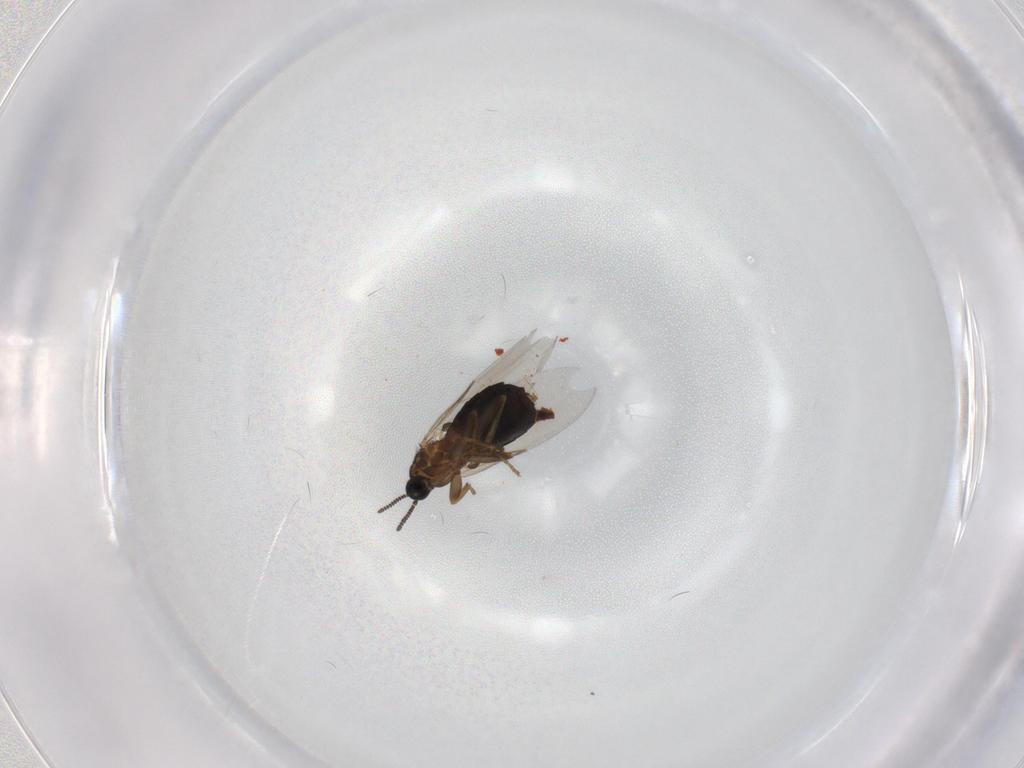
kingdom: Animalia
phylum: Arthropoda
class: Insecta
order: Diptera
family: Scatopsidae
